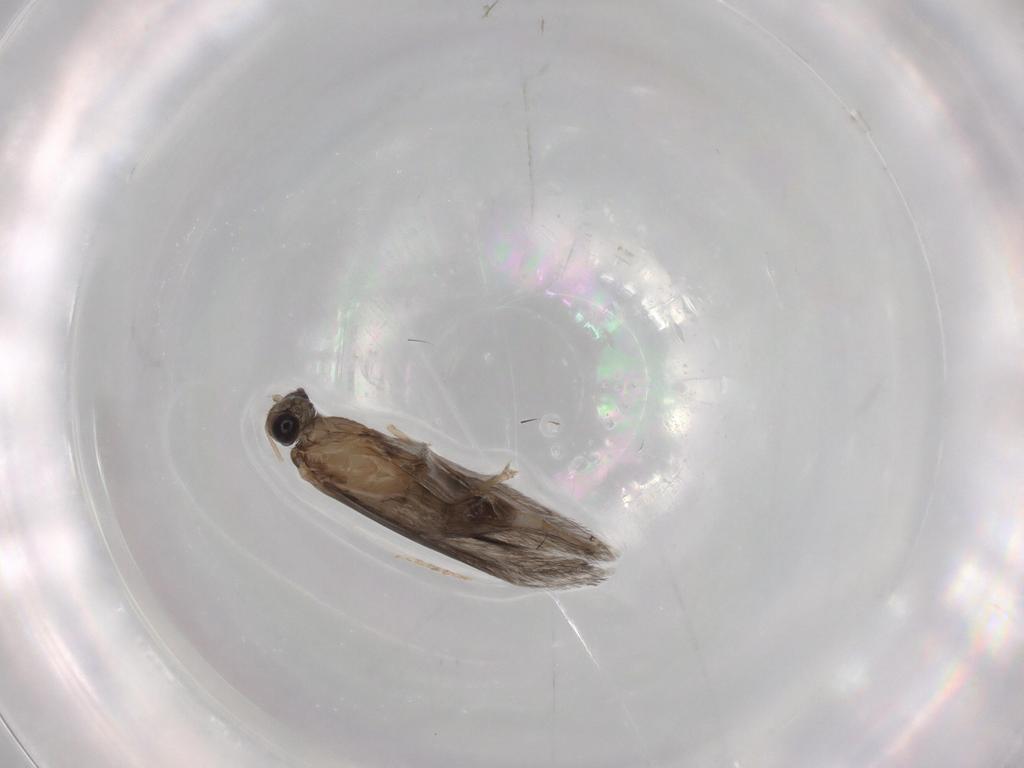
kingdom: Animalia
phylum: Arthropoda
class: Insecta
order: Trichoptera
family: Hydroptilidae
